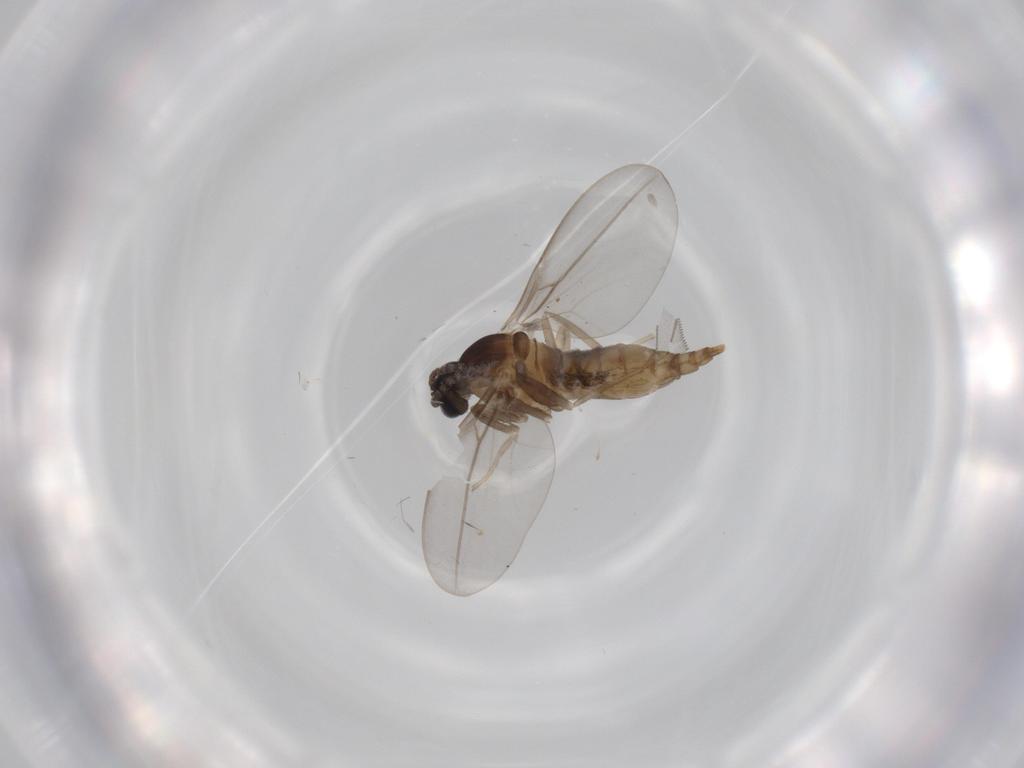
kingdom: Animalia
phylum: Arthropoda
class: Insecta
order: Diptera
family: Cecidomyiidae
